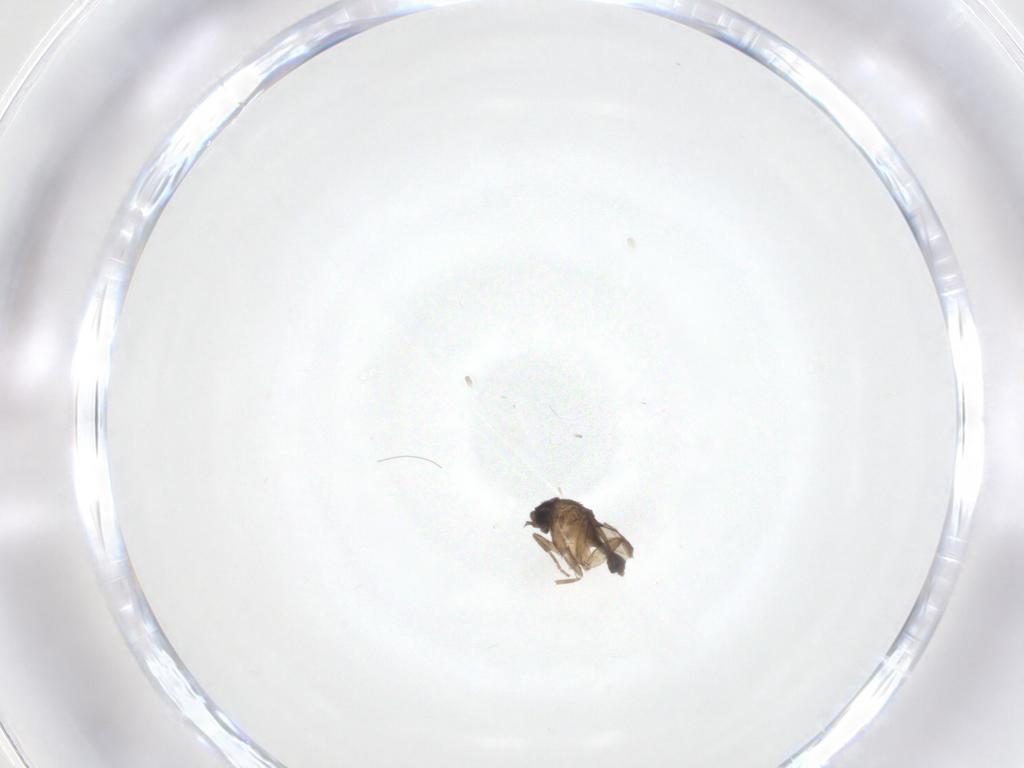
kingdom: Animalia
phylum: Arthropoda
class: Insecta
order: Diptera
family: Phoridae
